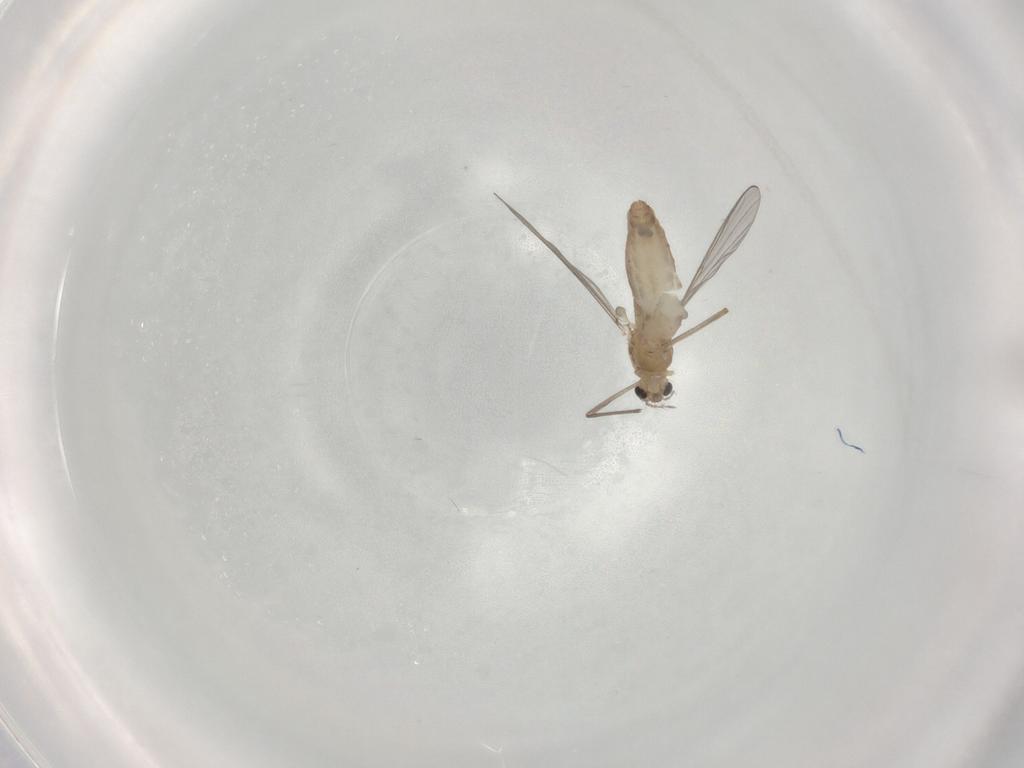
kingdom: Animalia
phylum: Arthropoda
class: Insecta
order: Diptera
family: Chironomidae
